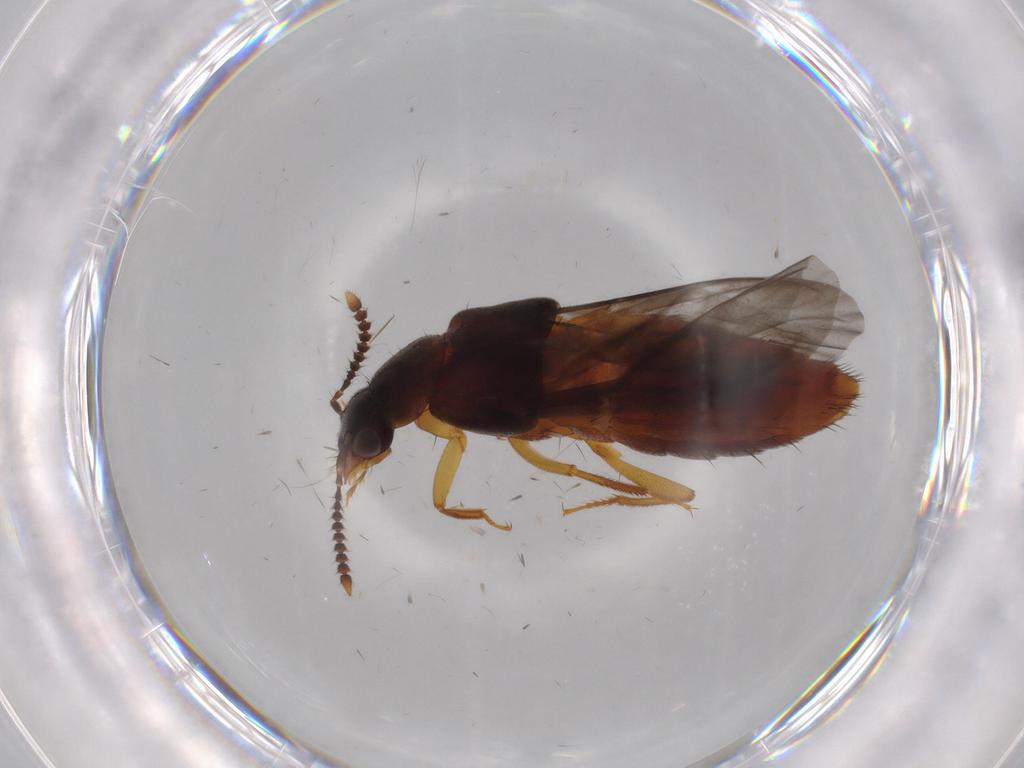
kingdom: Animalia
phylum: Arthropoda
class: Insecta
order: Coleoptera
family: Staphylinidae
